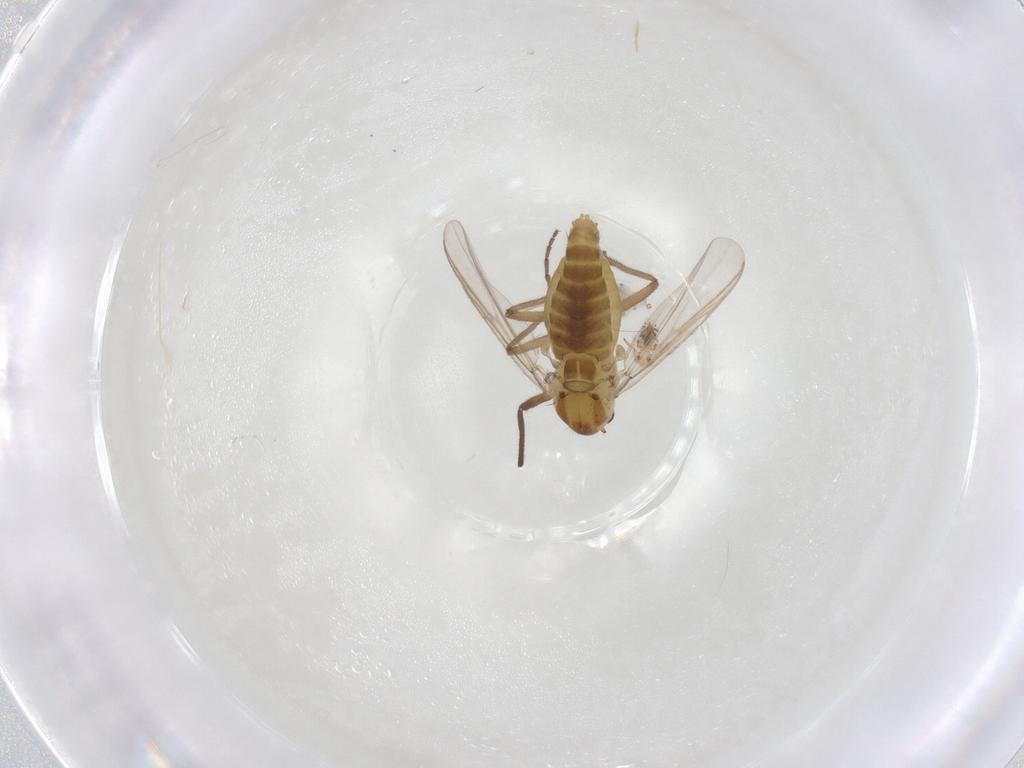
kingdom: Animalia
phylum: Arthropoda
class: Insecta
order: Diptera
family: Chironomidae
